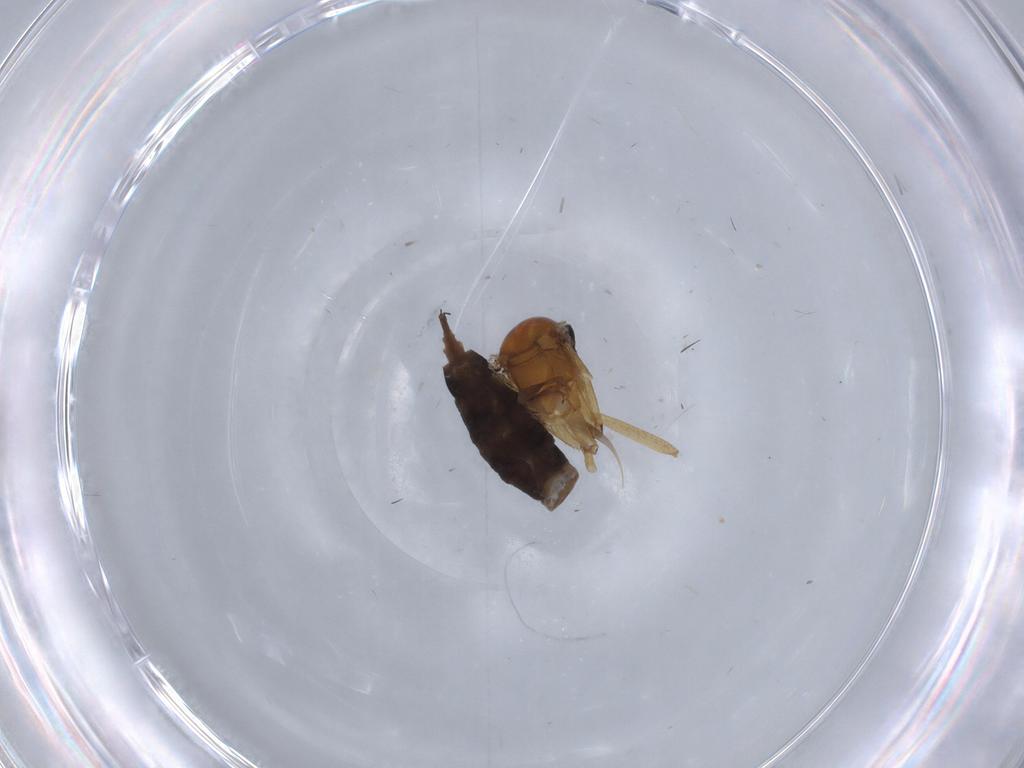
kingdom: Animalia
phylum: Arthropoda
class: Insecta
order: Diptera
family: Sciaridae
